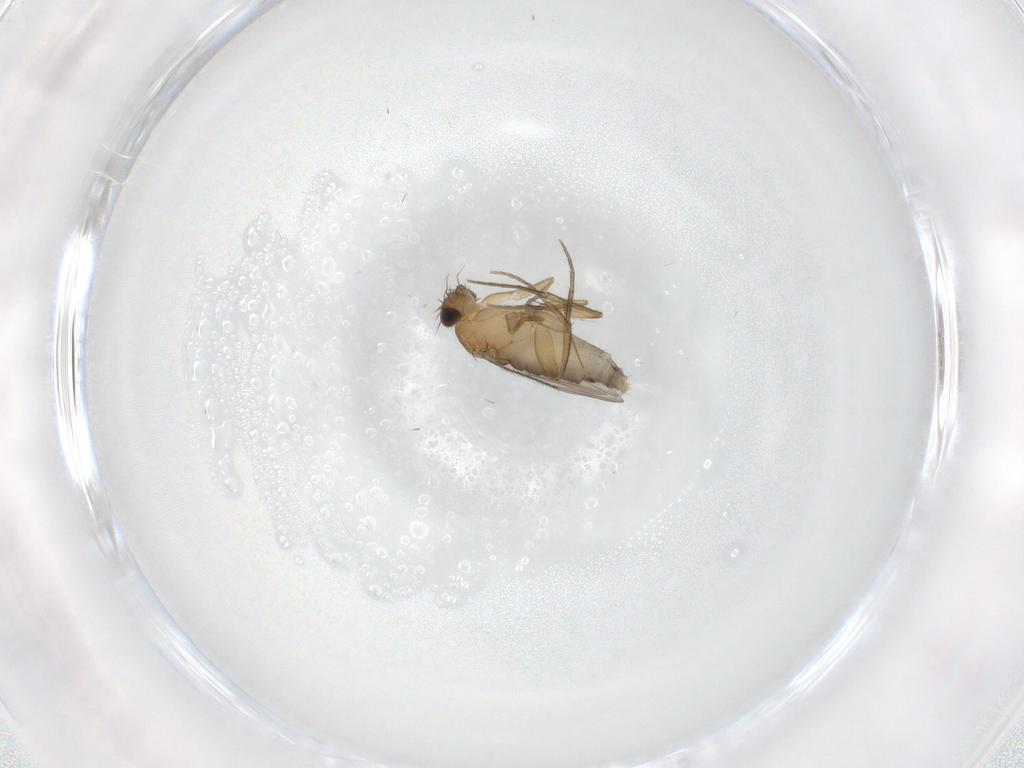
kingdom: Animalia
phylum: Arthropoda
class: Insecta
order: Diptera
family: Phoridae
